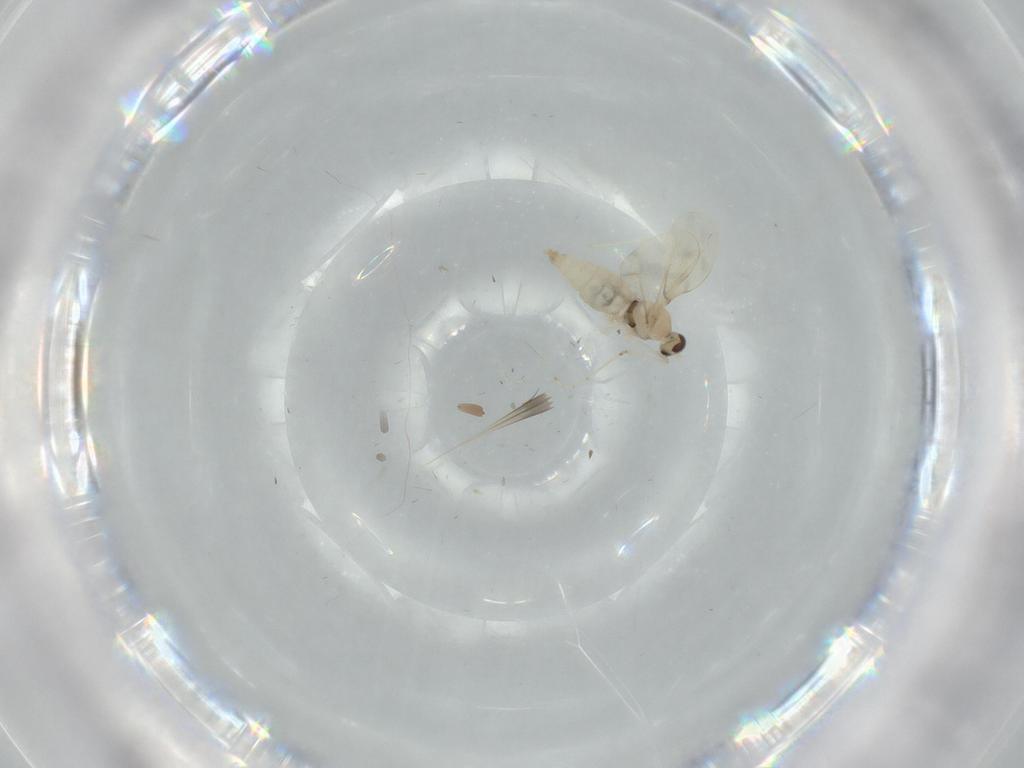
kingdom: Animalia
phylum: Arthropoda
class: Insecta
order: Diptera
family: Cecidomyiidae
